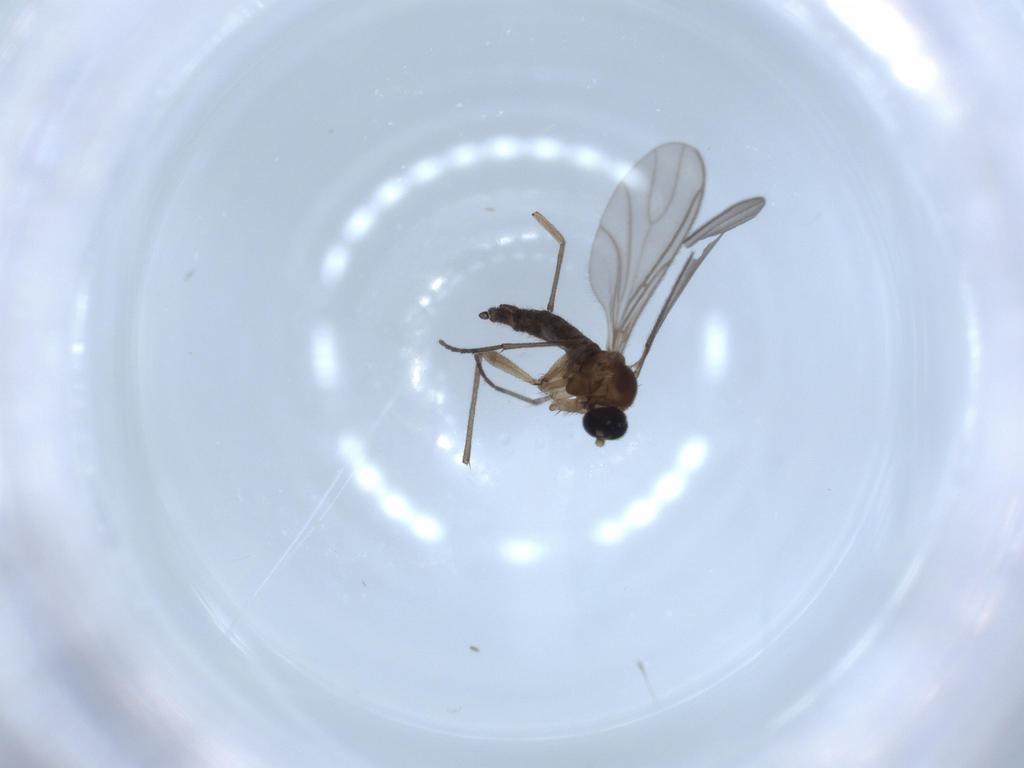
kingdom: Animalia
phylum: Arthropoda
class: Insecta
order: Diptera
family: Sciaridae
